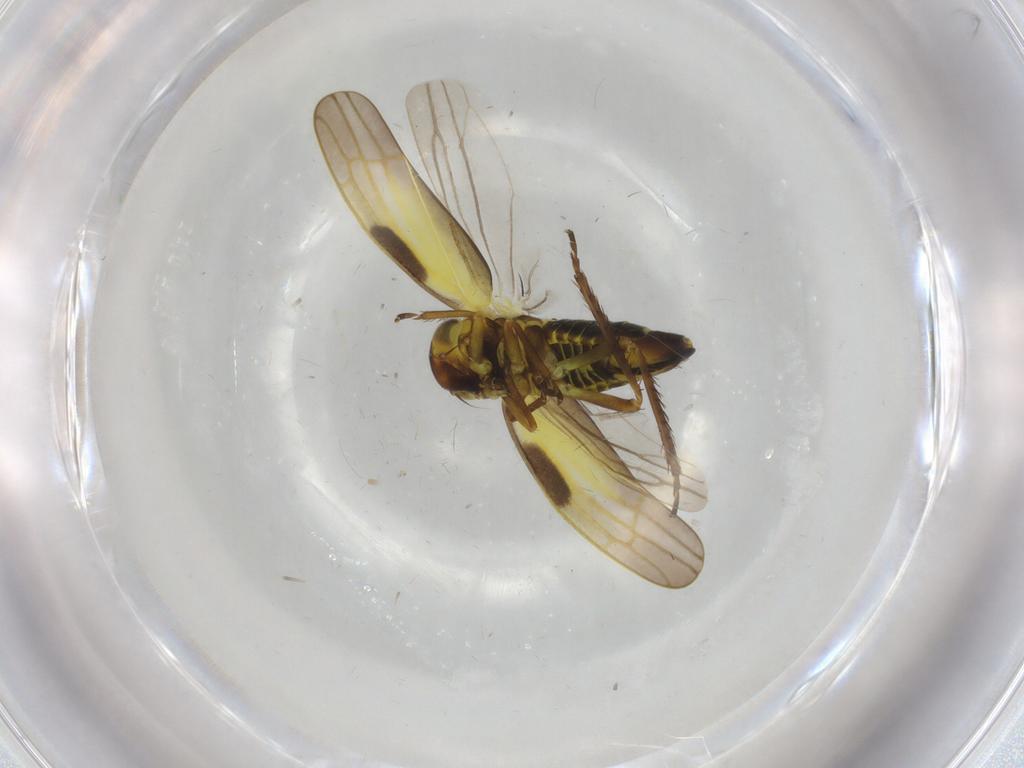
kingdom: Animalia
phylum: Arthropoda
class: Insecta
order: Hemiptera
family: Cicadellidae
